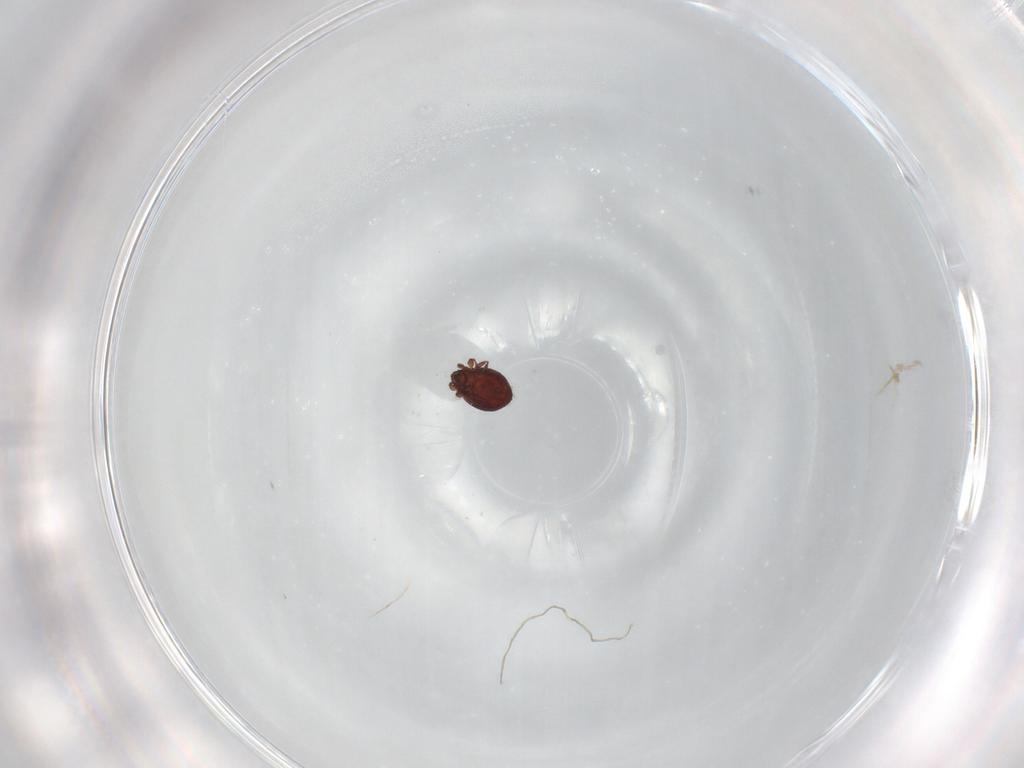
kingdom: Animalia
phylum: Arthropoda
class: Arachnida
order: Sarcoptiformes
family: Scheloribatidae
